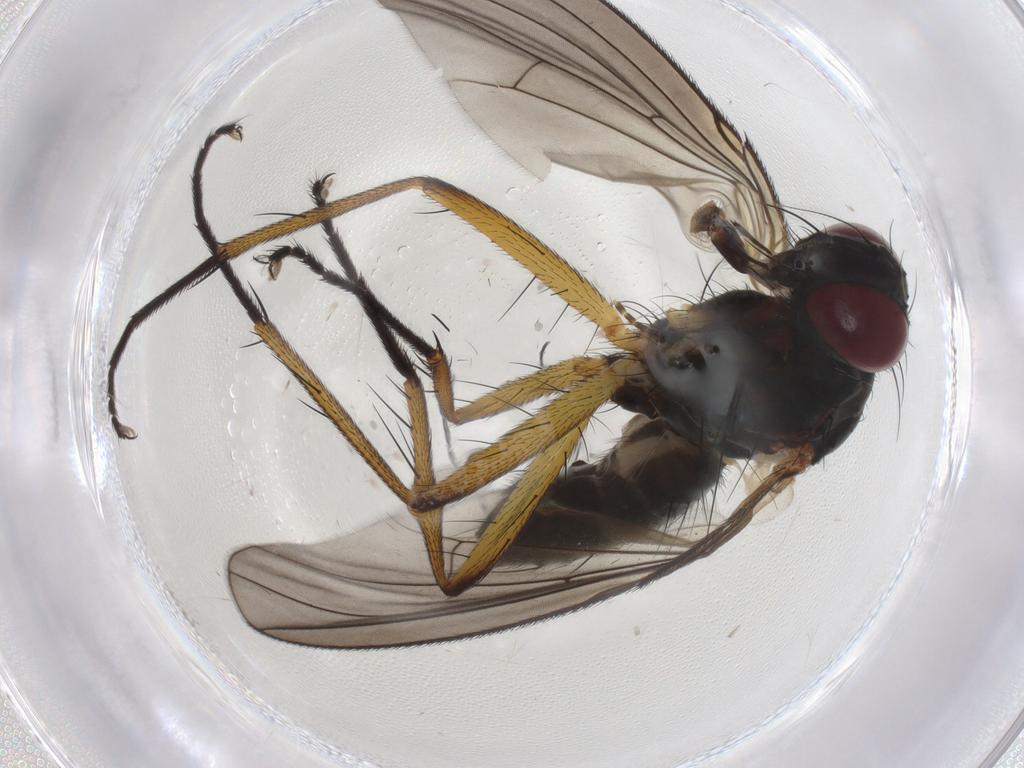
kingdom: Animalia
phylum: Arthropoda
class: Insecta
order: Diptera
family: Muscidae
